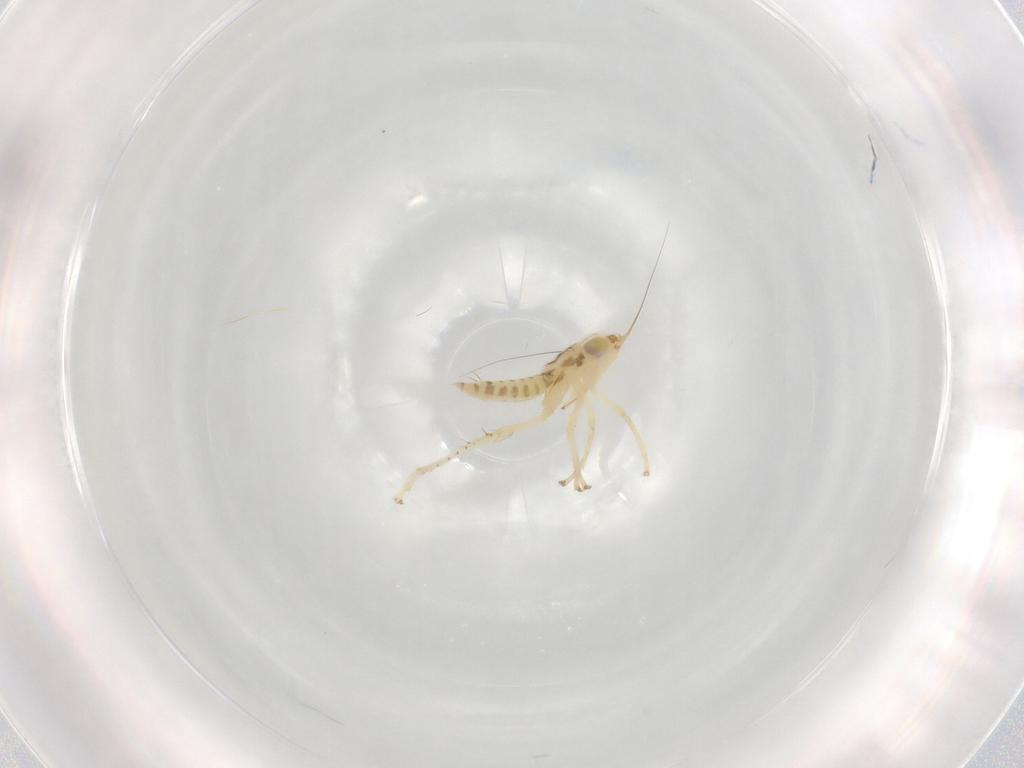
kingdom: Animalia
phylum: Arthropoda
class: Insecta
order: Hemiptera
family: Cicadellidae
